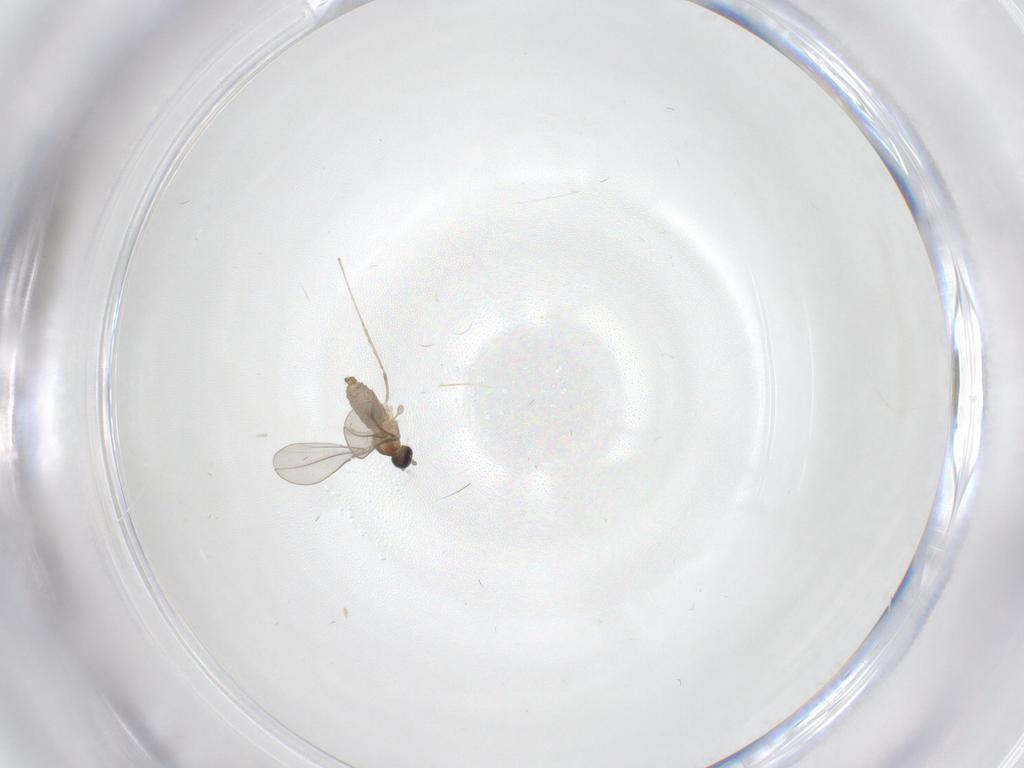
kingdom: Animalia
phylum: Arthropoda
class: Insecta
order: Diptera
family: Cecidomyiidae
